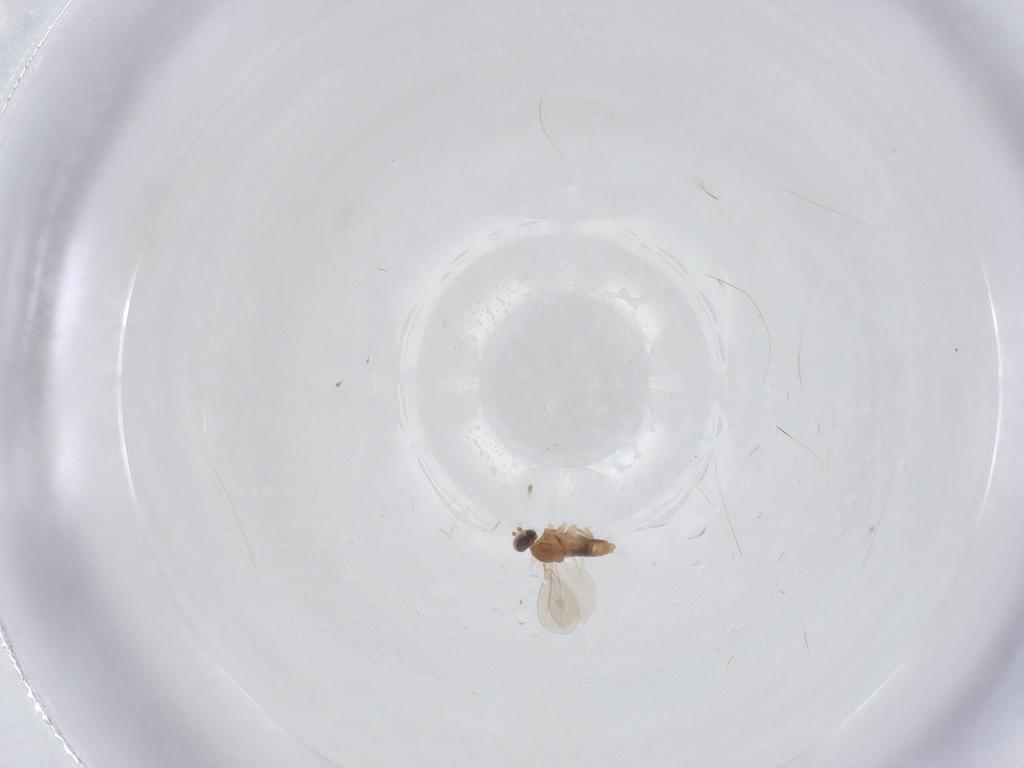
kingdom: Animalia
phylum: Arthropoda
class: Insecta
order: Diptera
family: Cecidomyiidae
